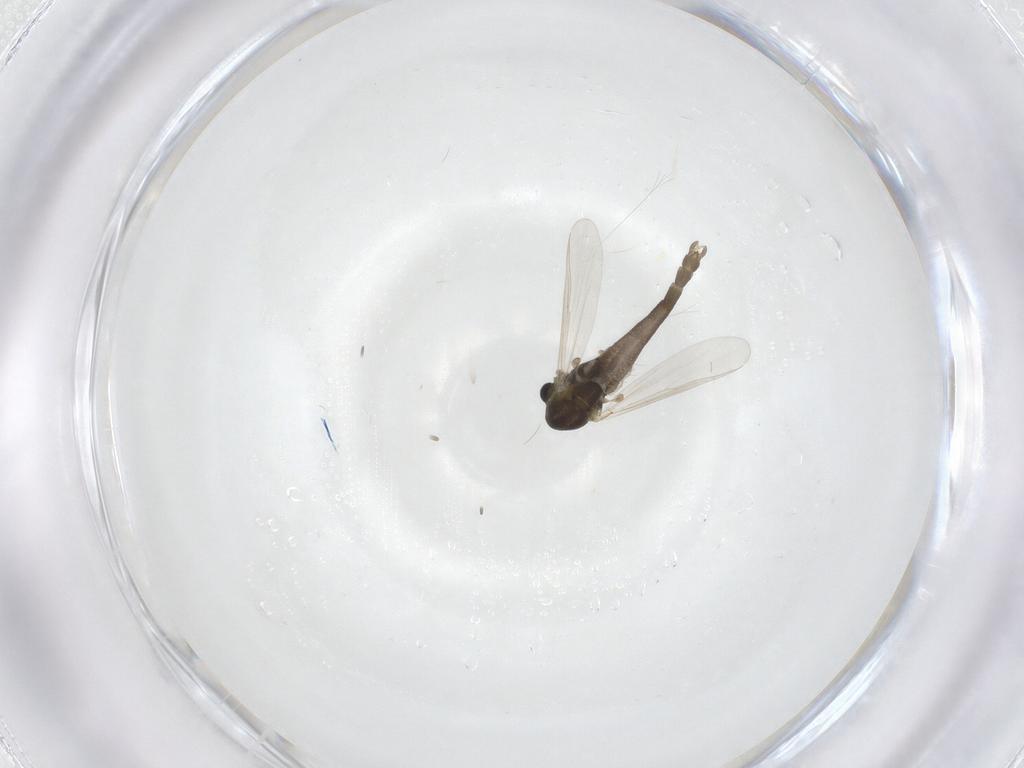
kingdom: Animalia
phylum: Arthropoda
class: Insecta
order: Diptera
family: Chironomidae
